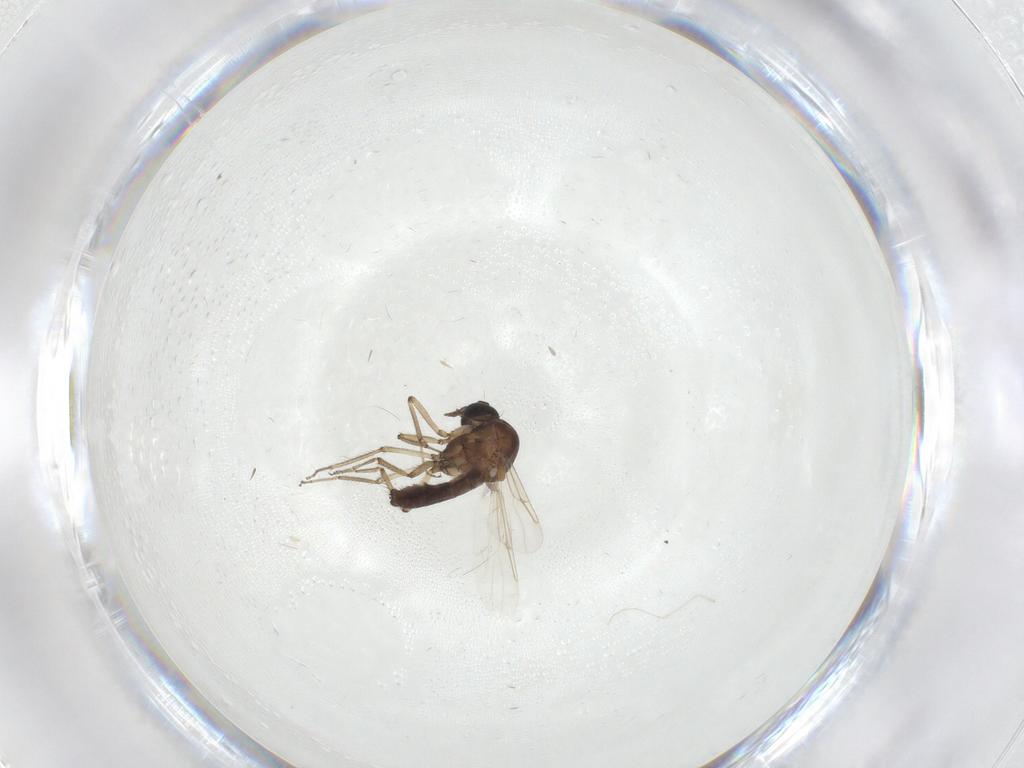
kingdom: Animalia
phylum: Arthropoda
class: Insecta
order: Diptera
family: Ceratopogonidae
